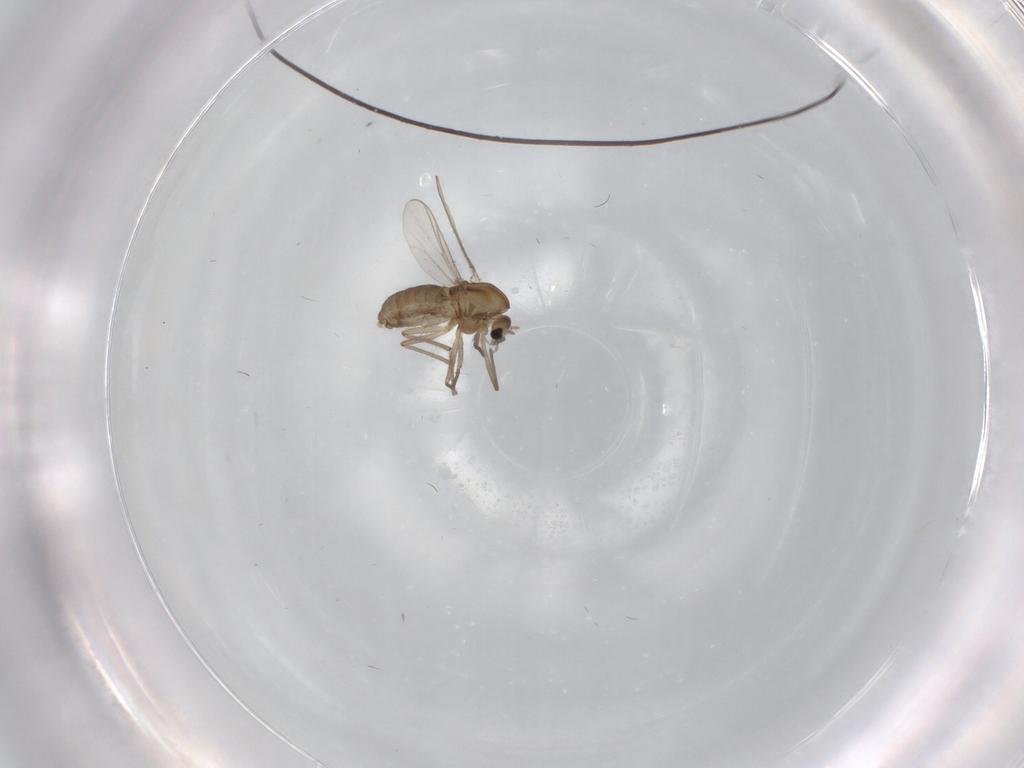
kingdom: Animalia
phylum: Arthropoda
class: Insecta
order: Diptera
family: Chironomidae
